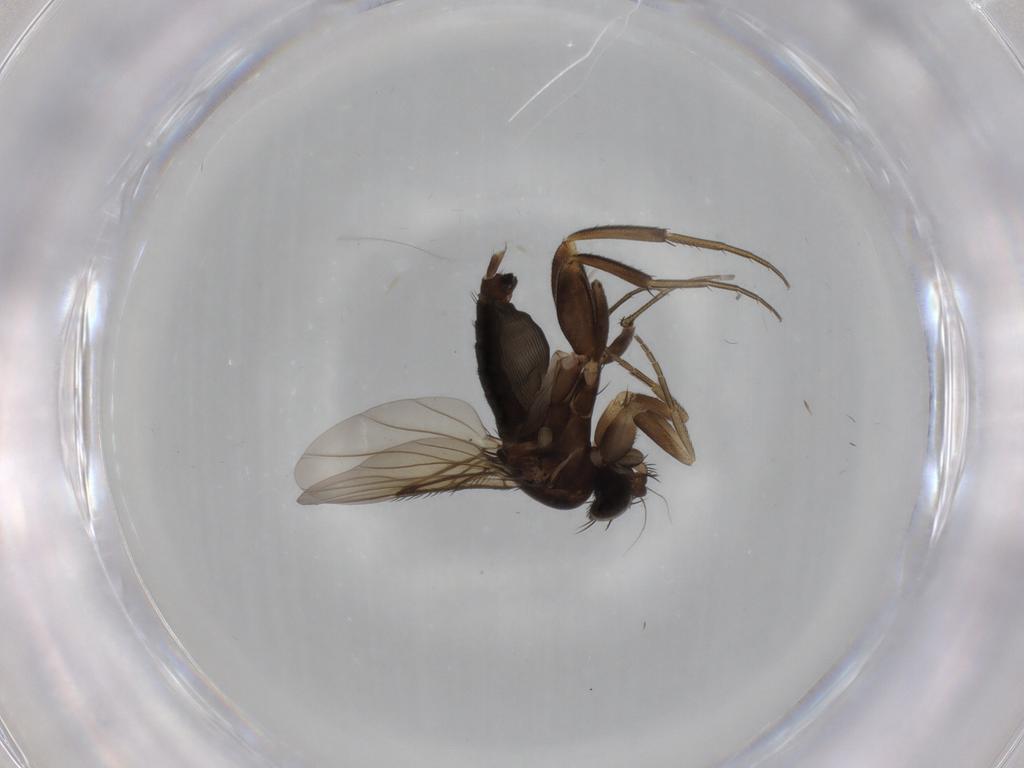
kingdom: Animalia
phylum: Arthropoda
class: Insecta
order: Diptera
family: Phoridae
